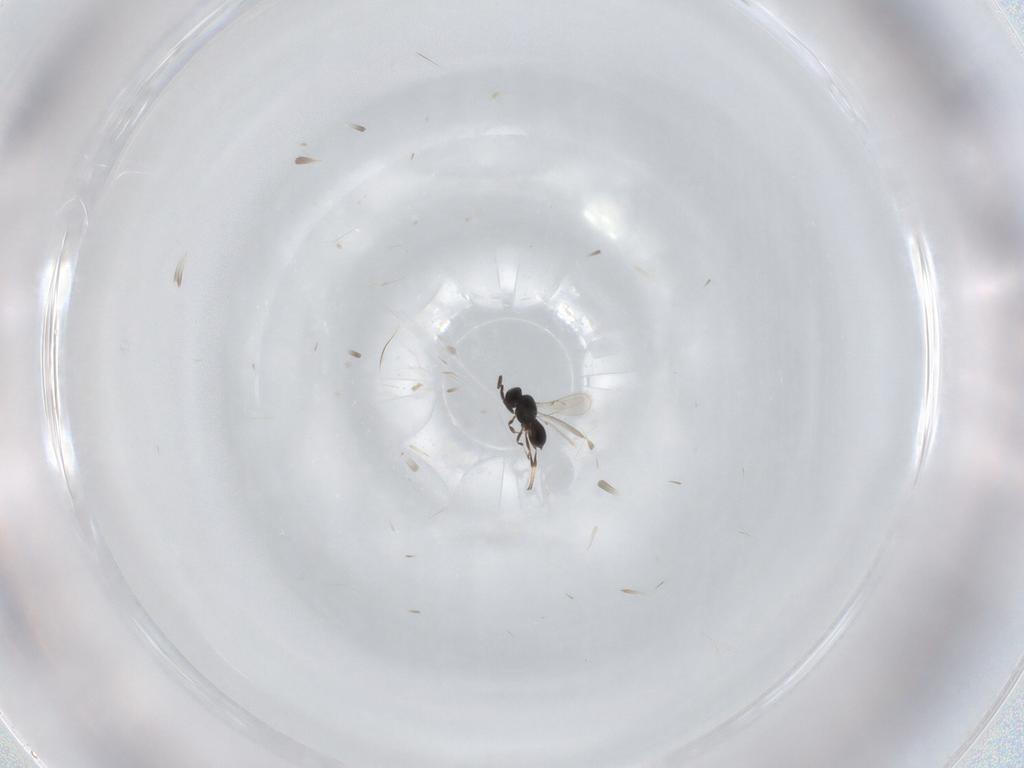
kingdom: Animalia
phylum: Arthropoda
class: Insecta
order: Hymenoptera
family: Scelionidae
